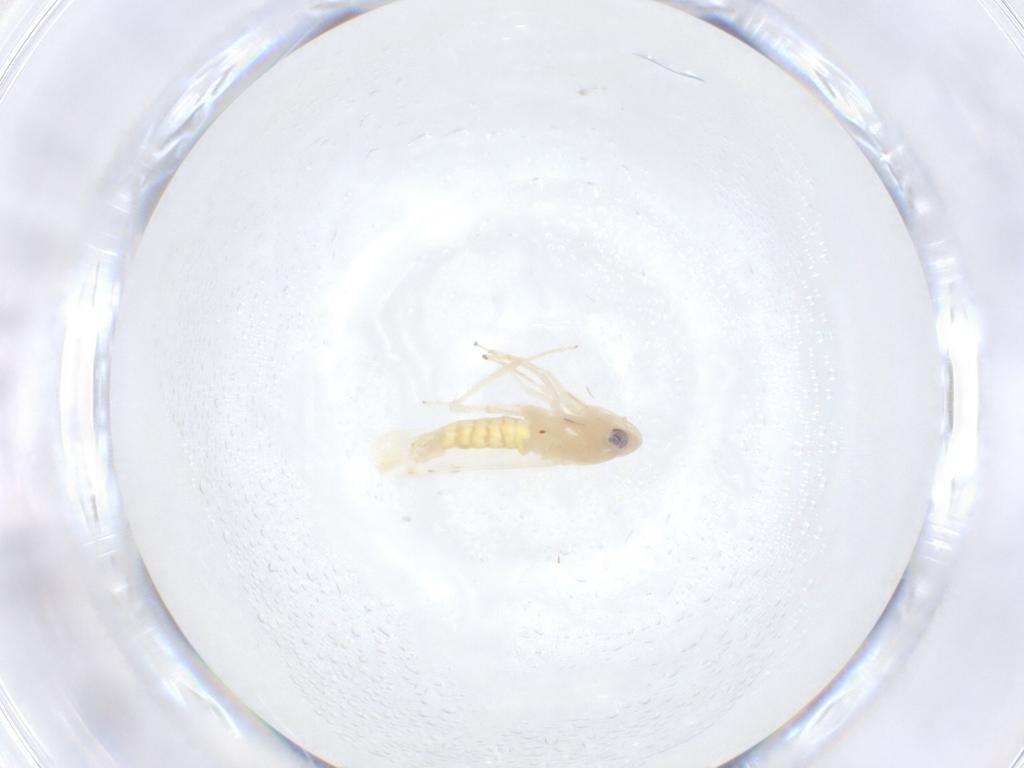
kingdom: Animalia
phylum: Arthropoda
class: Insecta
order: Hemiptera
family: Cicadellidae
